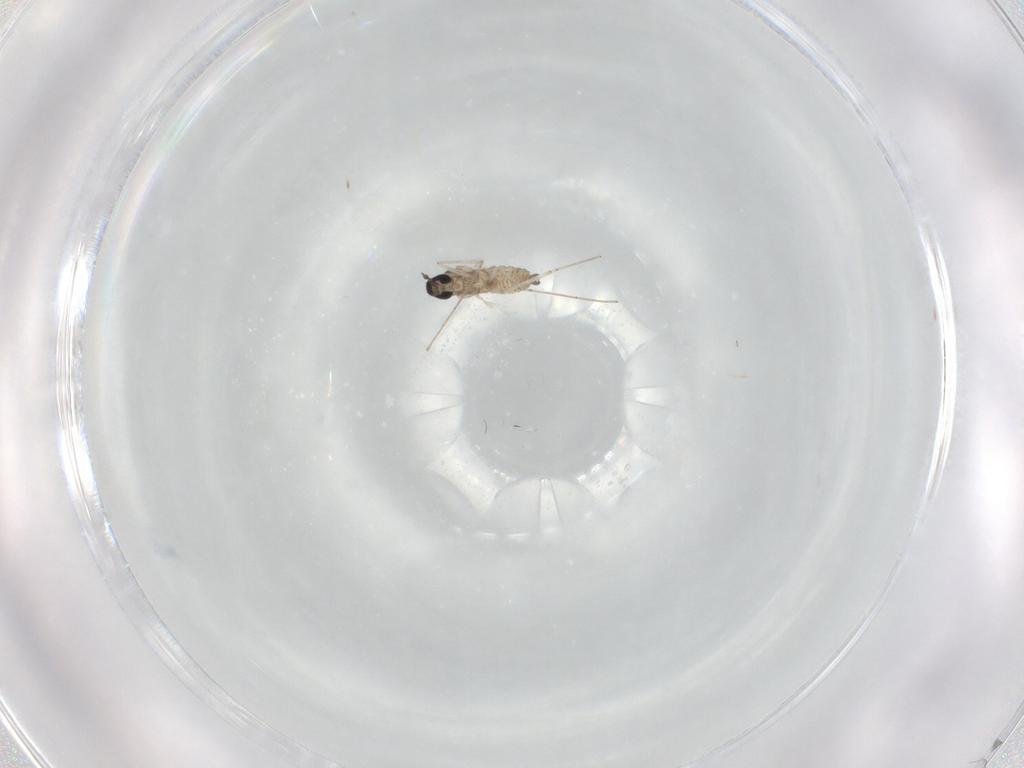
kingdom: Animalia
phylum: Arthropoda
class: Insecta
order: Diptera
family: Cecidomyiidae
